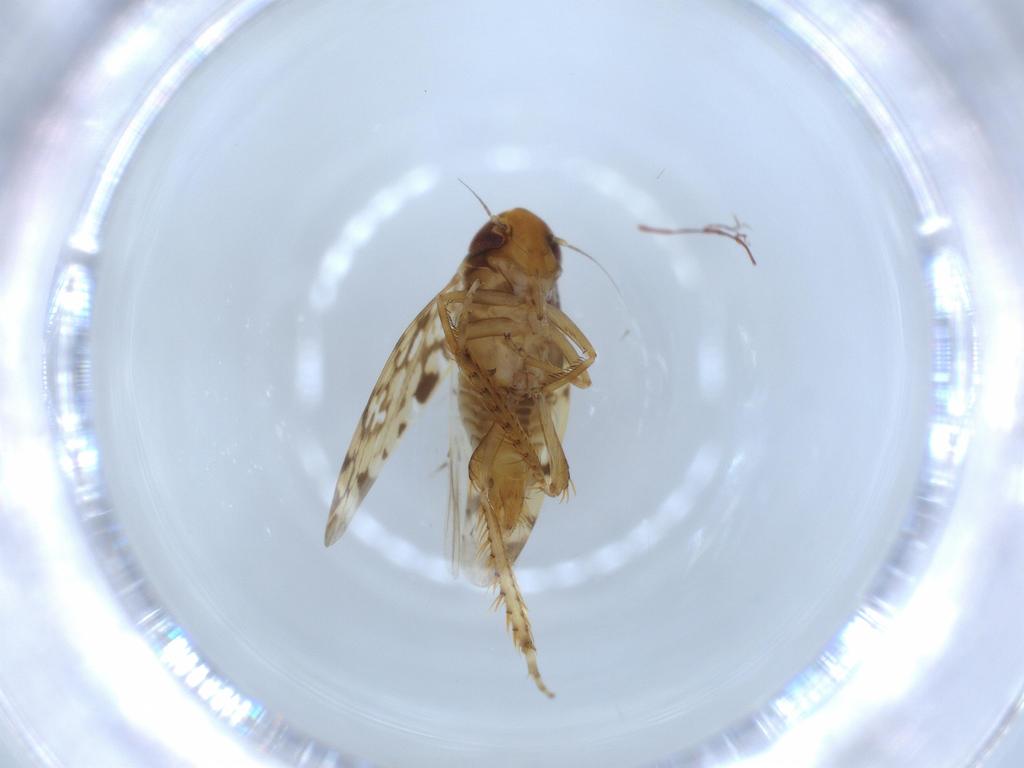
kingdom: Animalia
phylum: Arthropoda
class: Insecta
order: Hemiptera
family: Cicadellidae
